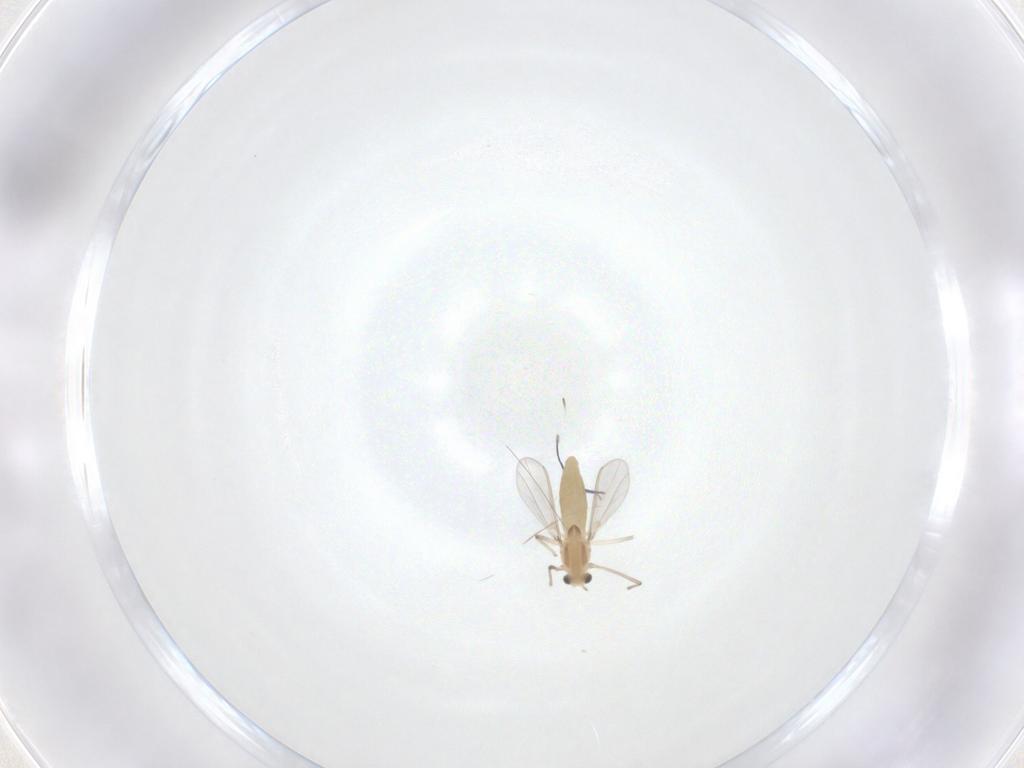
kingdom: Animalia
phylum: Arthropoda
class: Insecta
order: Diptera
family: Chironomidae
